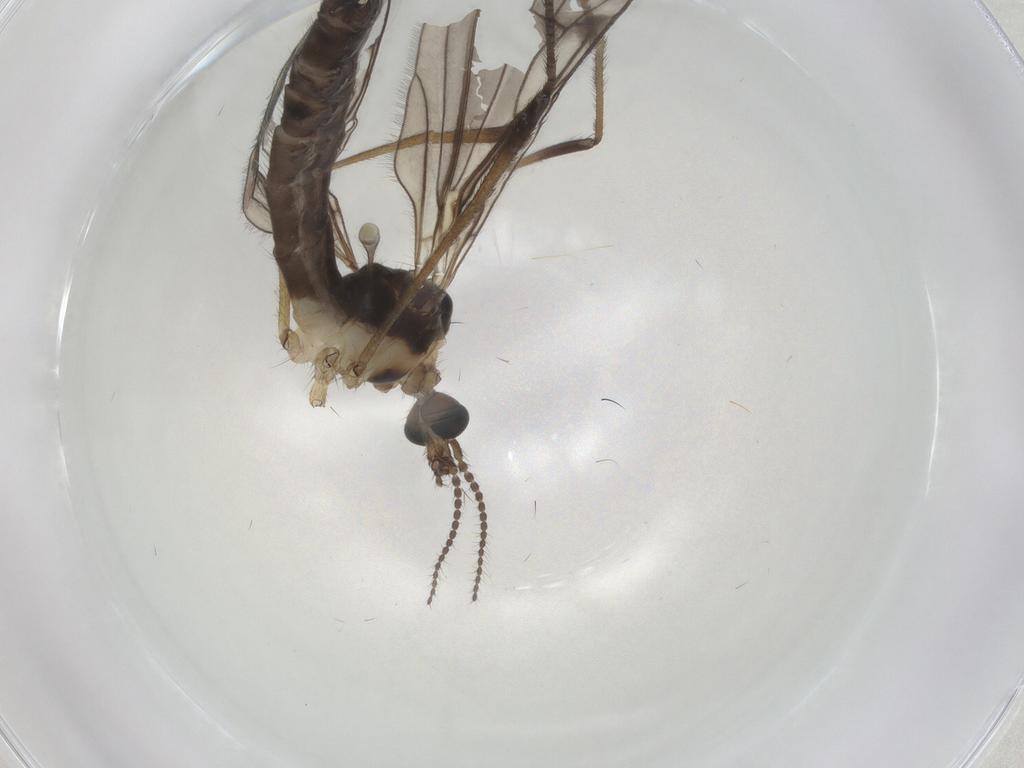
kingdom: Animalia
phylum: Arthropoda
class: Insecta
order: Diptera
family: Limoniidae
